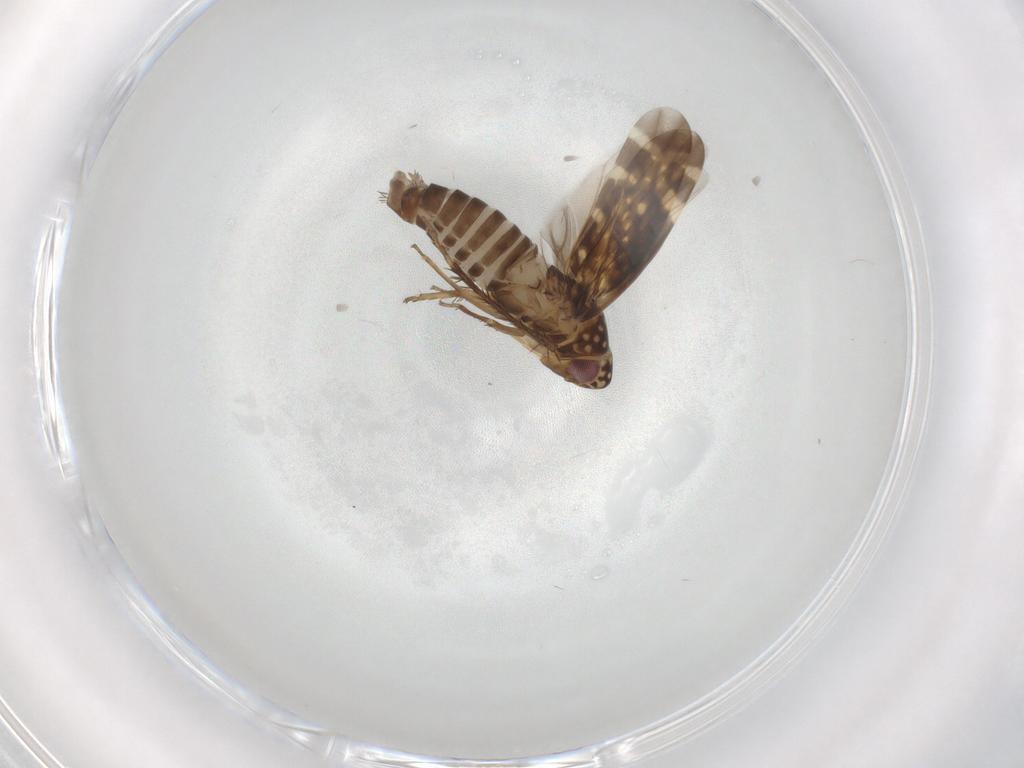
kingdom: Animalia
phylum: Arthropoda
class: Insecta
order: Hemiptera
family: Cicadellidae
